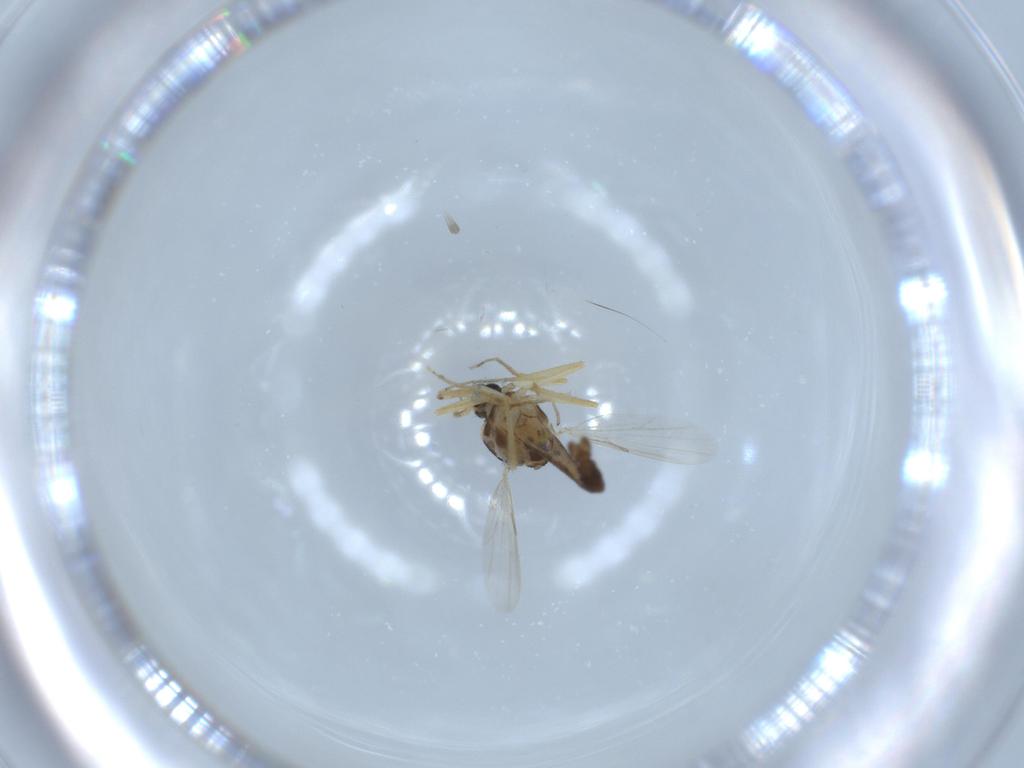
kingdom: Animalia
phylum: Arthropoda
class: Insecta
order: Diptera
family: Ceratopogonidae
